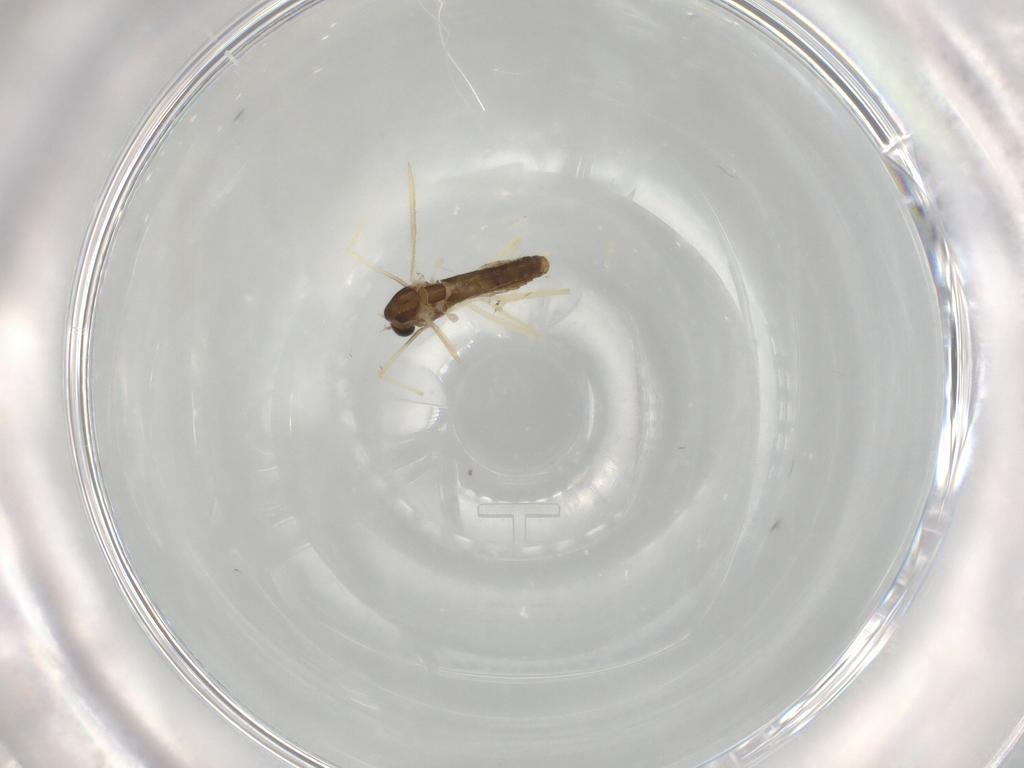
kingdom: Animalia
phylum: Arthropoda
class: Insecta
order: Diptera
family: Chironomidae
